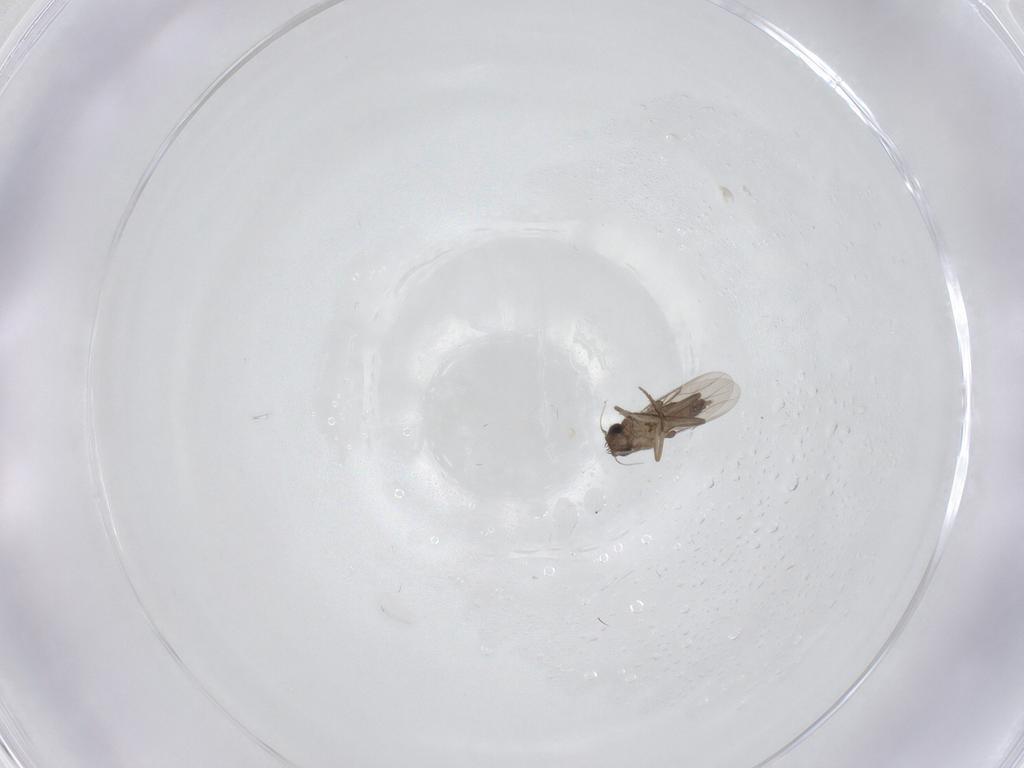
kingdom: Animalia
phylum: Arthropoda
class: Insecta
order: Diptera
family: Phoridae
